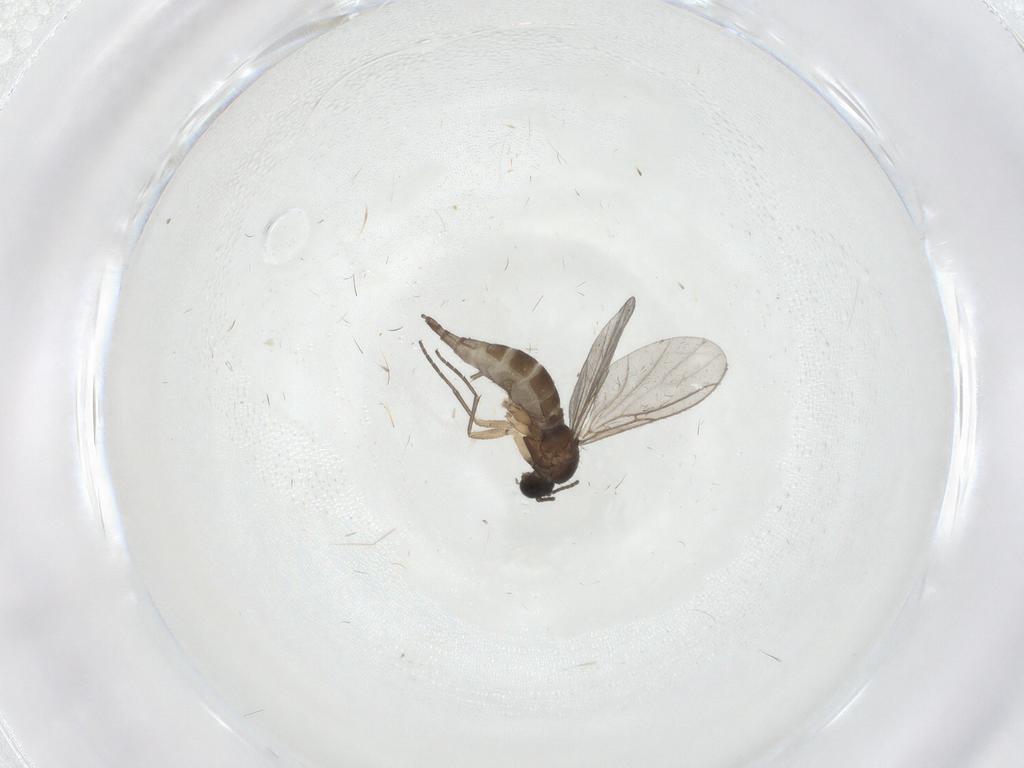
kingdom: Animalia
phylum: Arthropoda
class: Insecta
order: Diptera
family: Sciaridae
